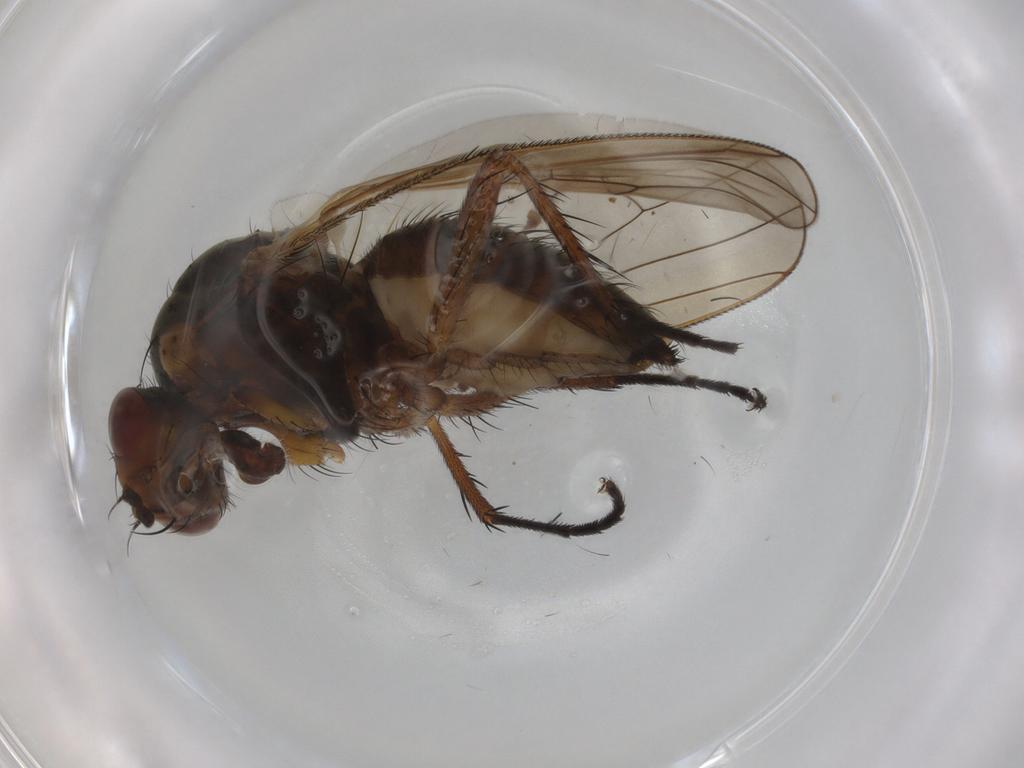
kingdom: Animalia
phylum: Arthropoda
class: Insecta
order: Diptera
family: Anthomyiidae
